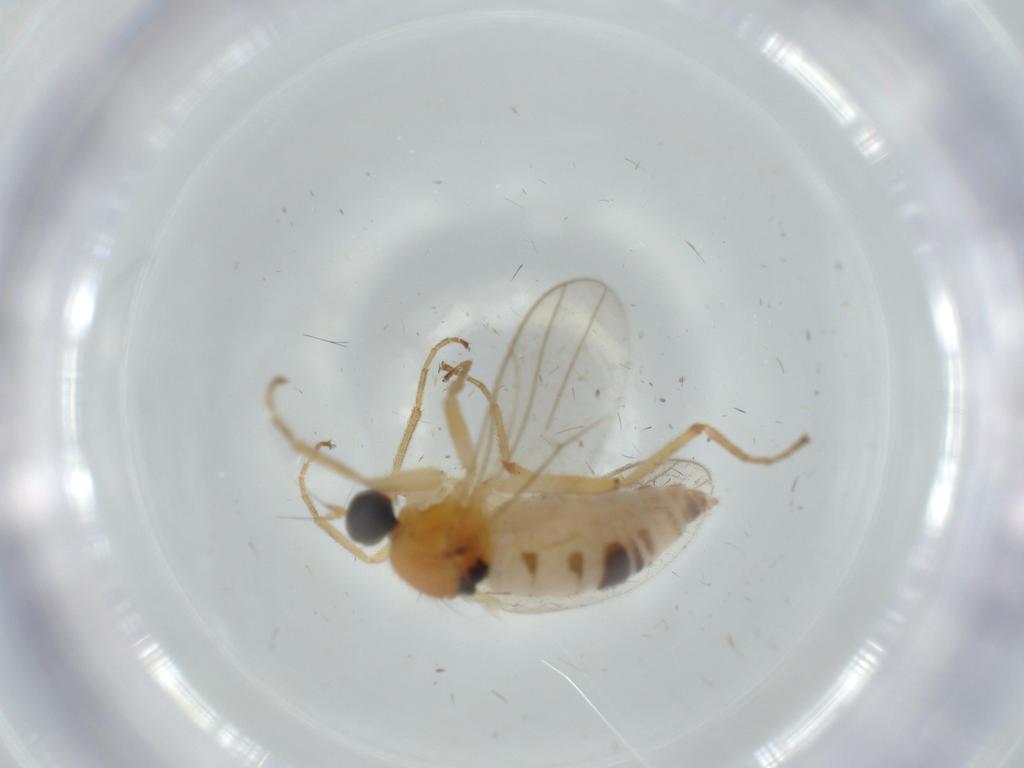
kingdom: Animalia
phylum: Arthropoda
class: Insecta
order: Diptera
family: Hybotidae
